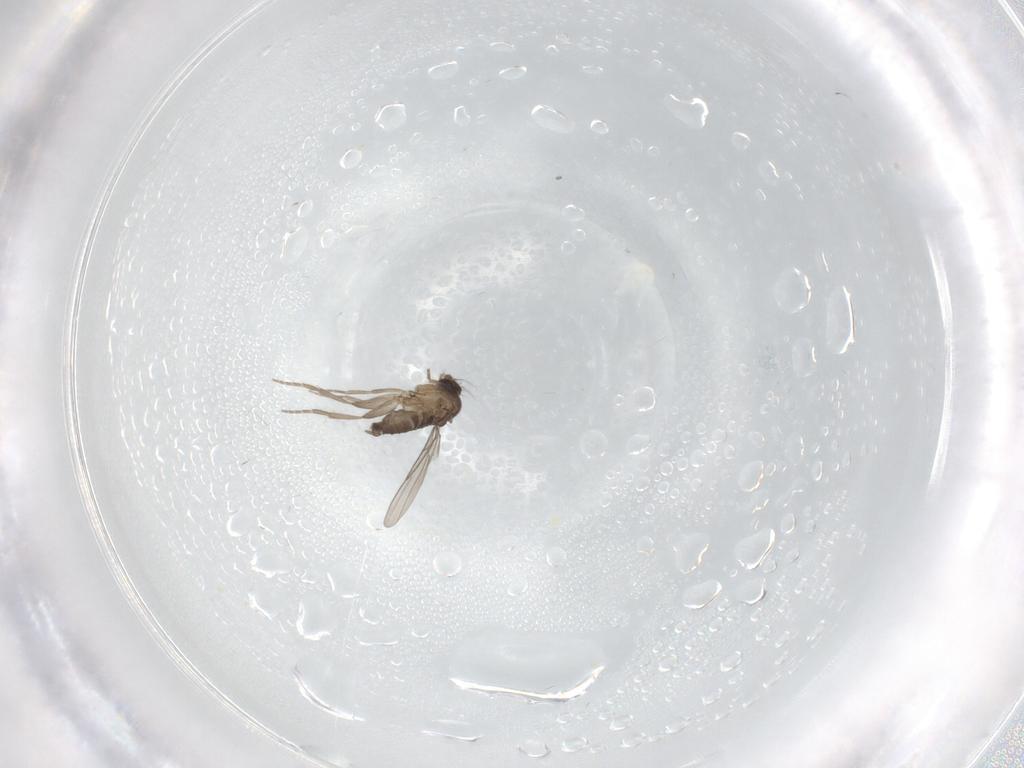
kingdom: Animalia
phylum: Arthropoda
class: Insecta
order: Diptera
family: Phoridae
